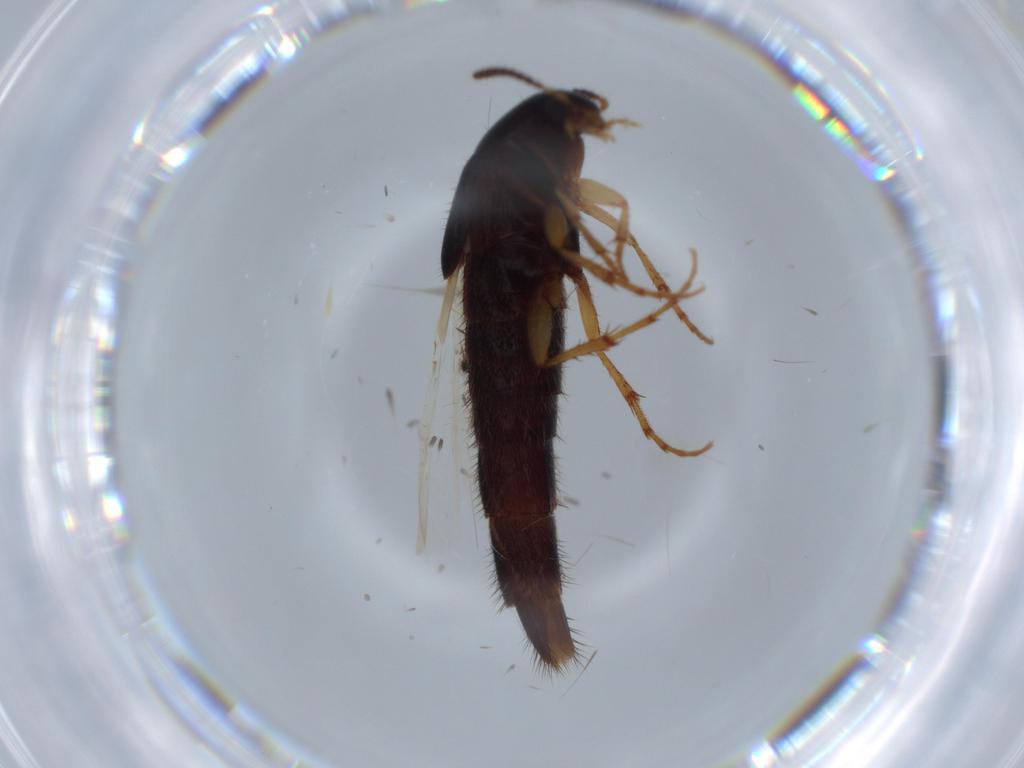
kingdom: Animalia
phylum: Arthropoda
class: Insecta
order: Coleoptera
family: Staphylinidae
